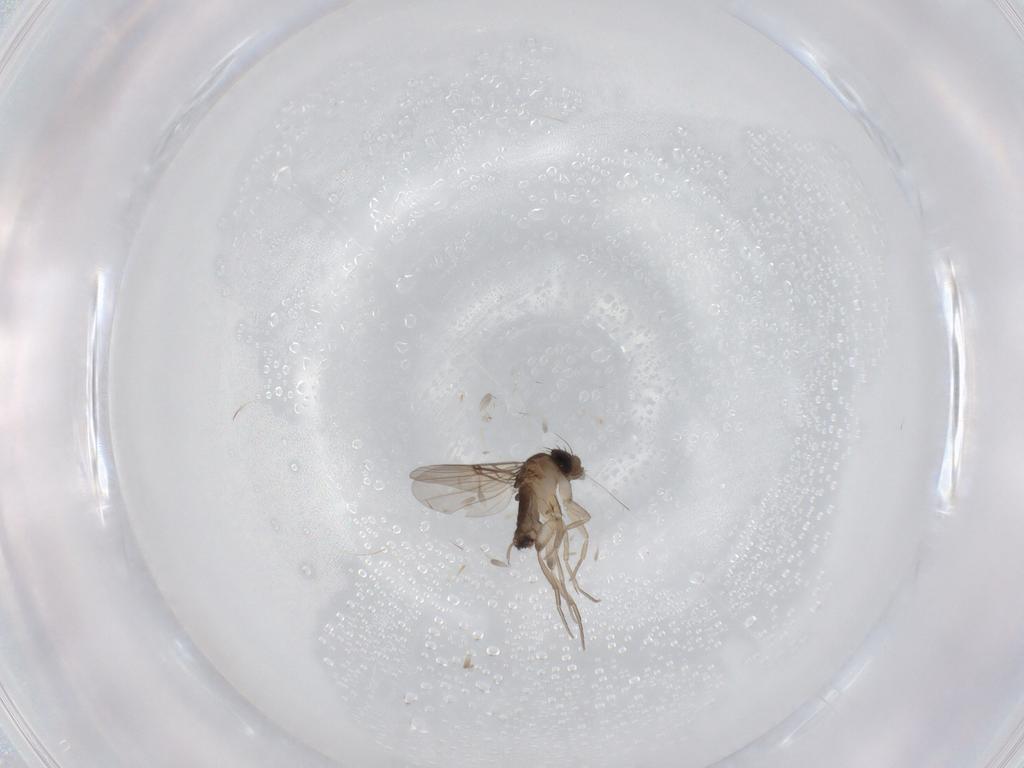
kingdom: Animalia
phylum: Arthropoda
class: Insecta
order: Diptera
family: Phoridae
